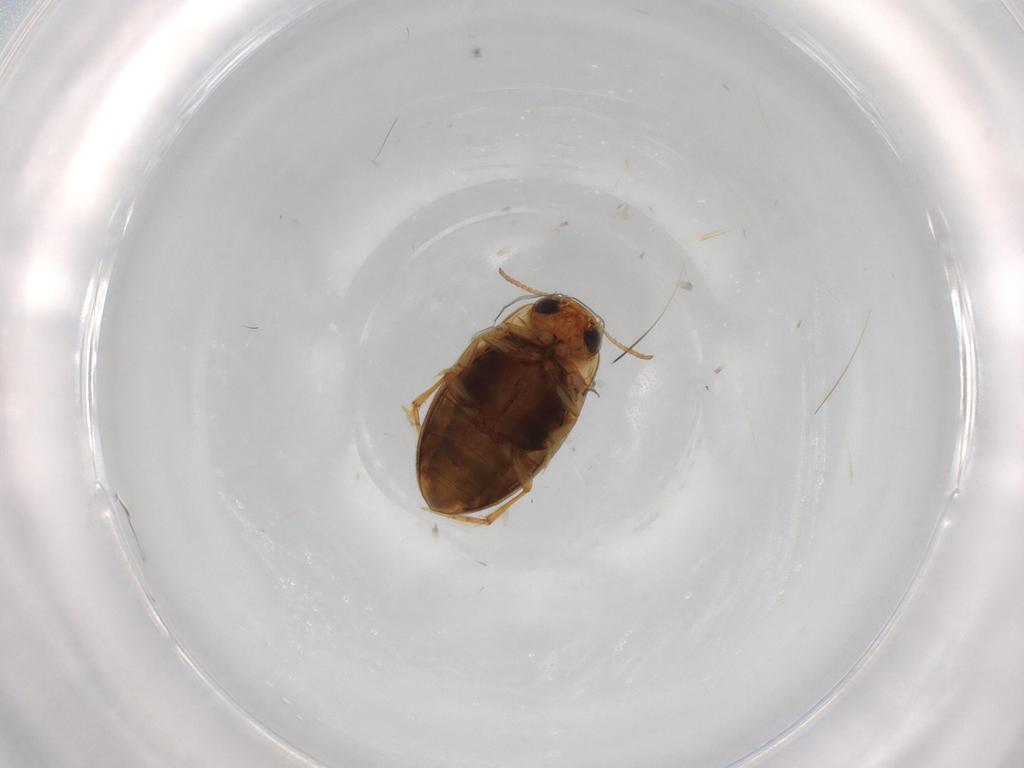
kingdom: Animalia
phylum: Arthropoda
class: Insecta
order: Coleoptera
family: Dytiscidae
